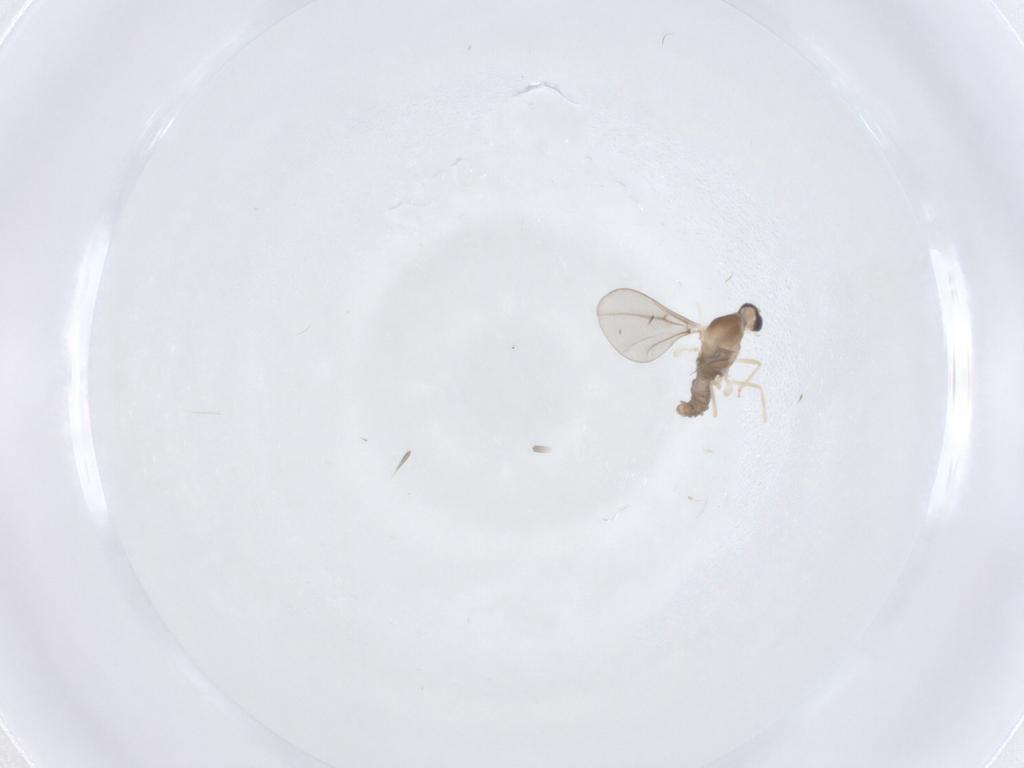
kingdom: Animalia
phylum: Arthropoda
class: Insecta
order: Diptera
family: Cecidomyiidae
